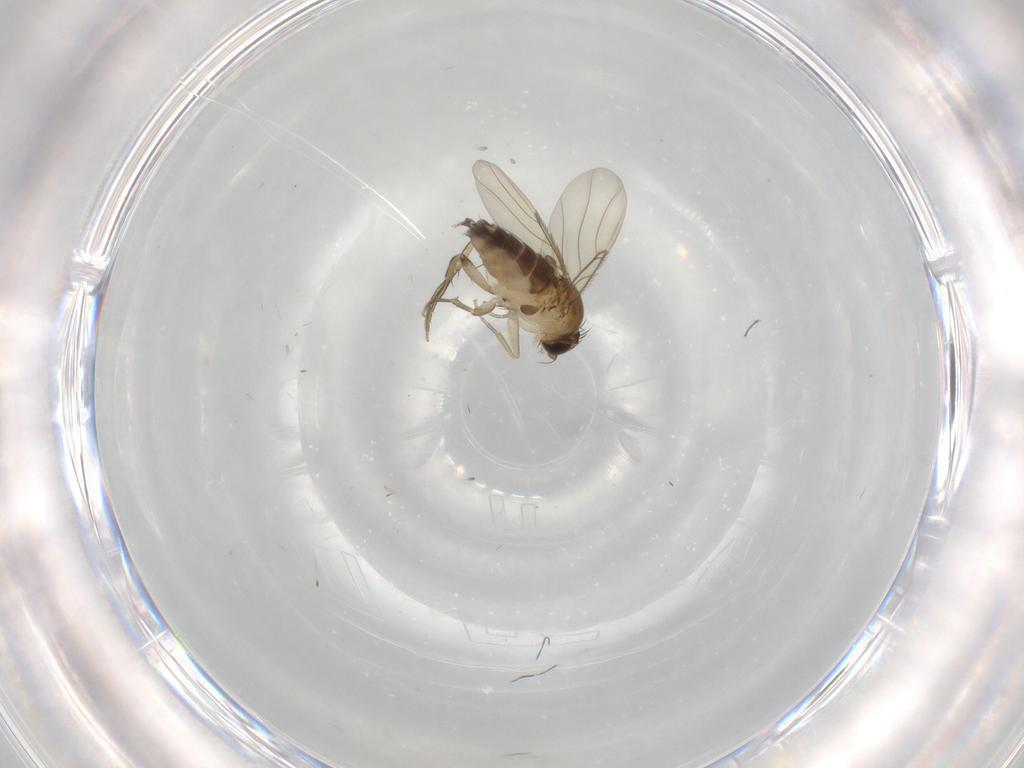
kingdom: Animalia
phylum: Arthropoda
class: Insecta
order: Diptera
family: Phoridae
